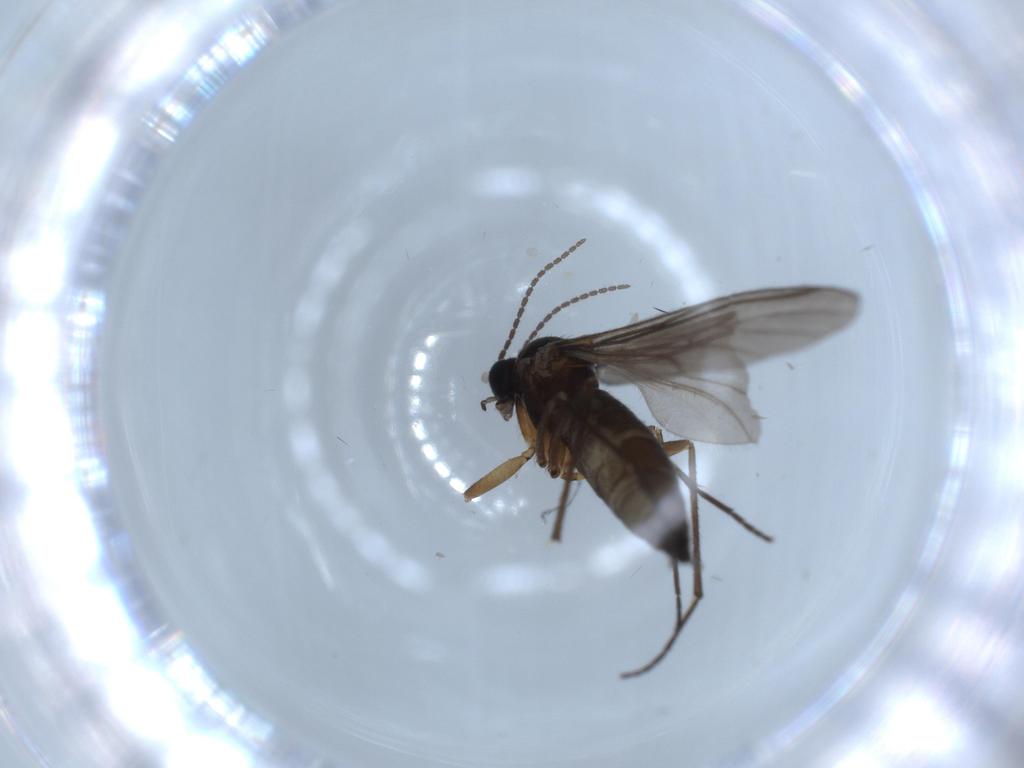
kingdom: Animalia
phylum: Arthropoda
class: Insecta
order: Diptera
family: Sciaridae
